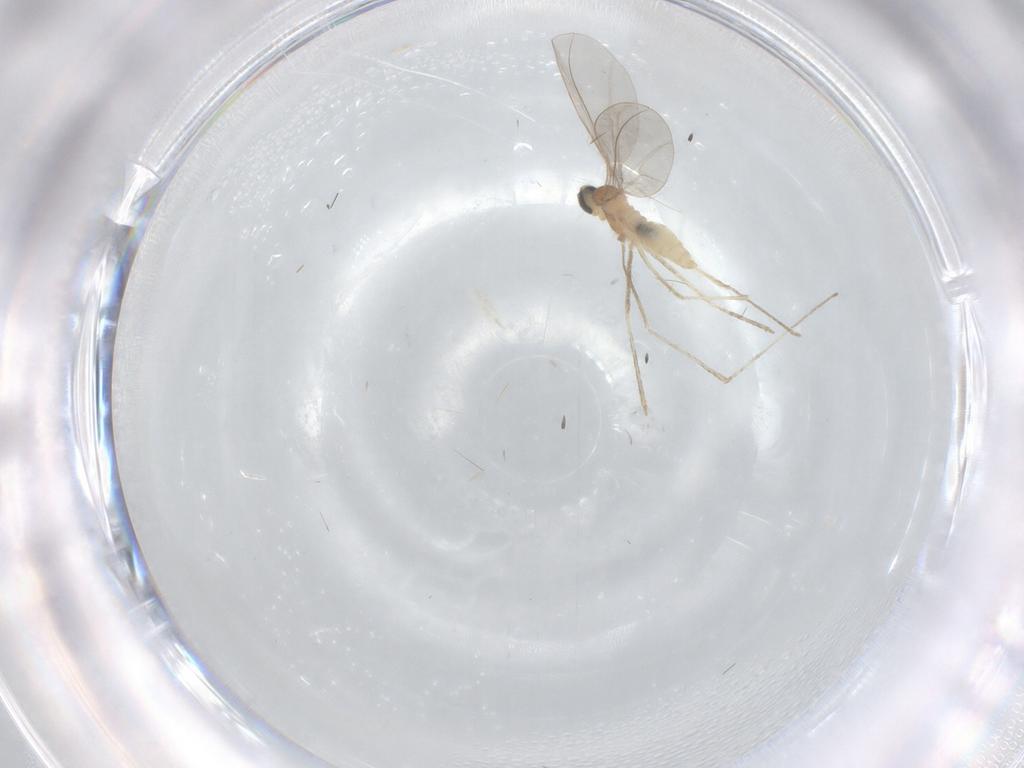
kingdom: Animalia
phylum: Arthropoda
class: Insecta
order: Diptera
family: Cecidomyiidae
